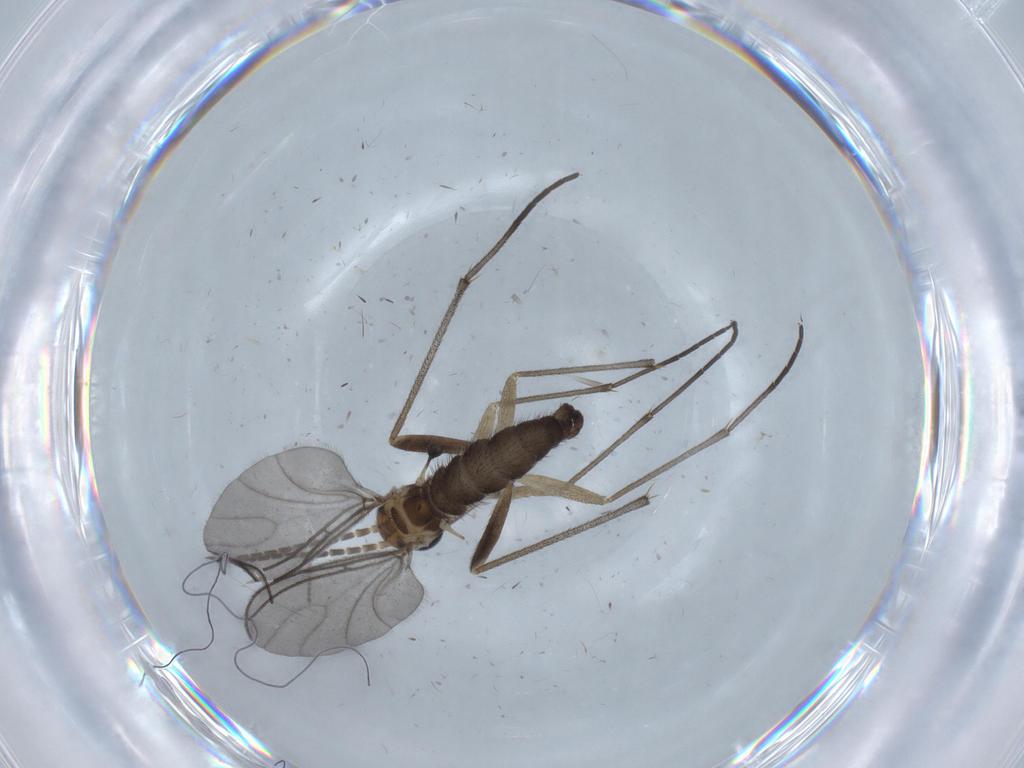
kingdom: Animalia
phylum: Arthropoda
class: Insecta
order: Diptera
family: Sciaridae
